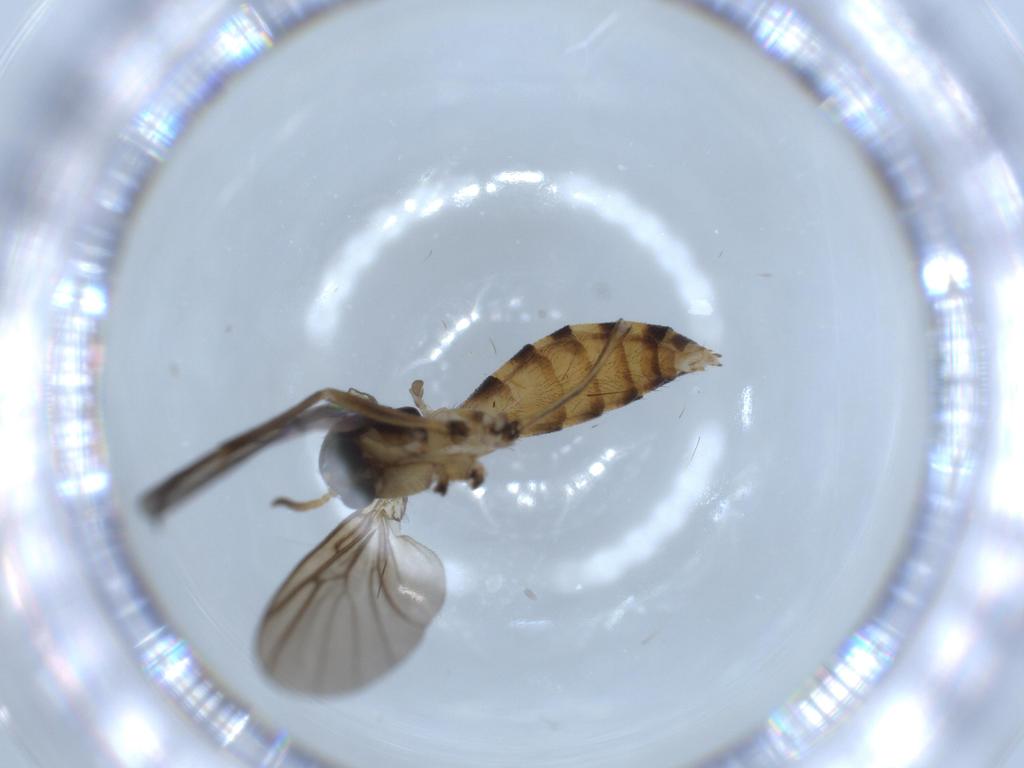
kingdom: Animalia
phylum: Arthropoda
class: Insecta
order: Diptera
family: Mycetophilidae
